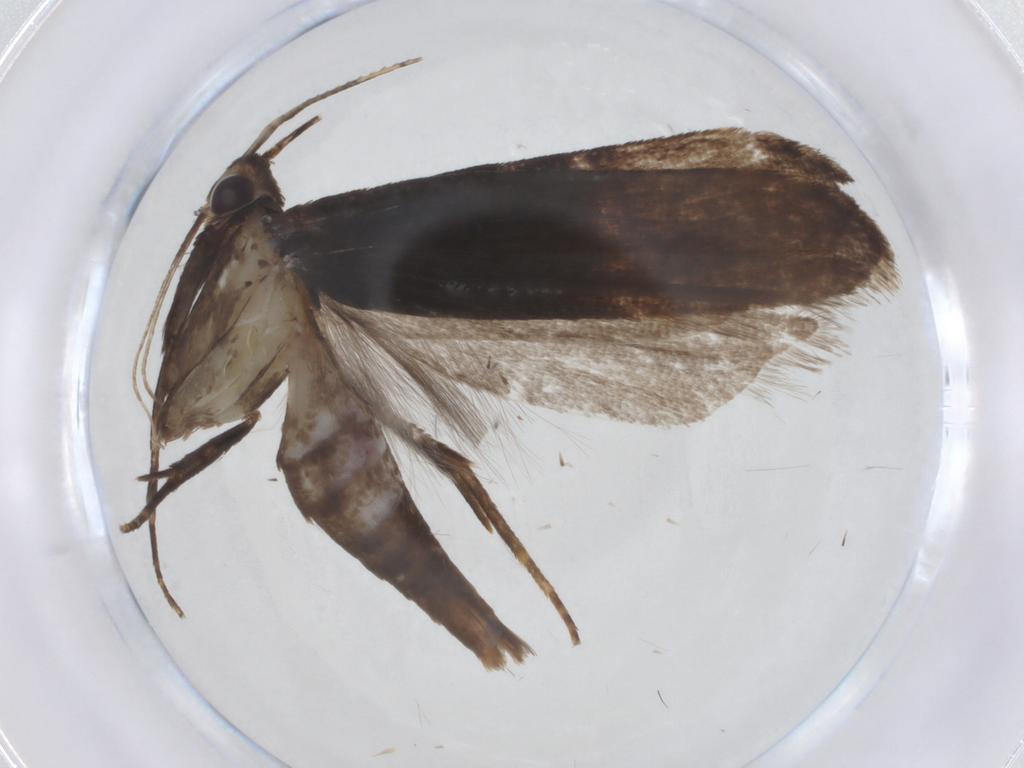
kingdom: Animalia
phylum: Arthropoda
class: Insecta
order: Lepidoptera
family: Gelechiidae
